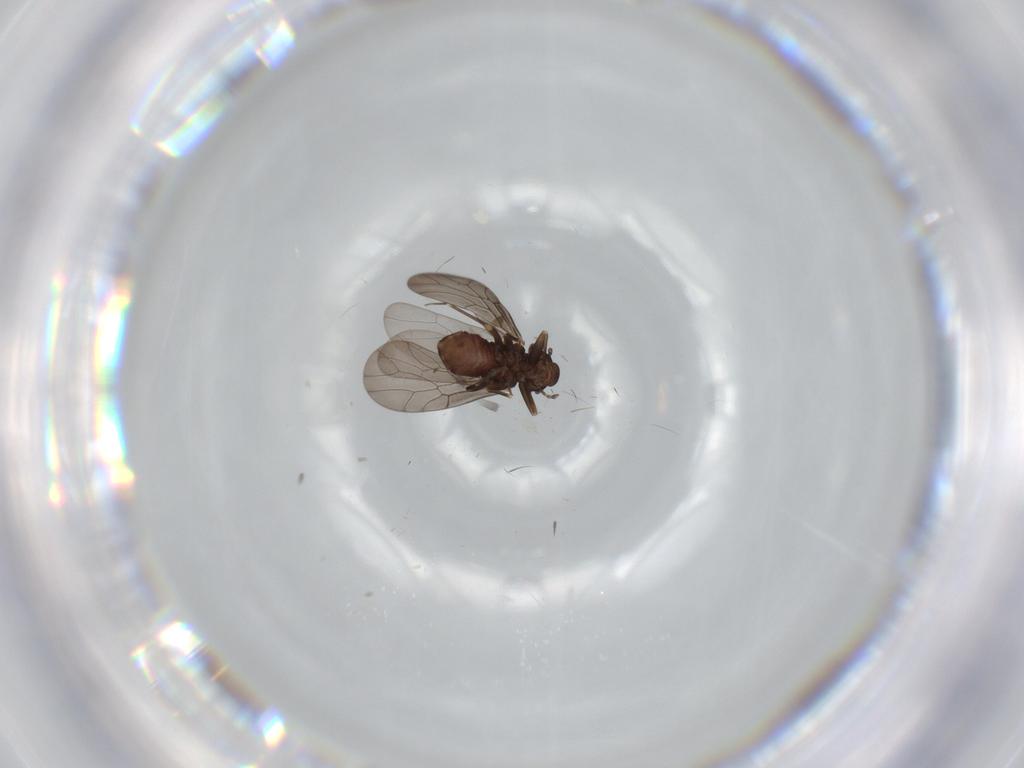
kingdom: Animalia
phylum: Arthropoda
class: Insecta
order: Psocodea
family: Lepidopsocidae
